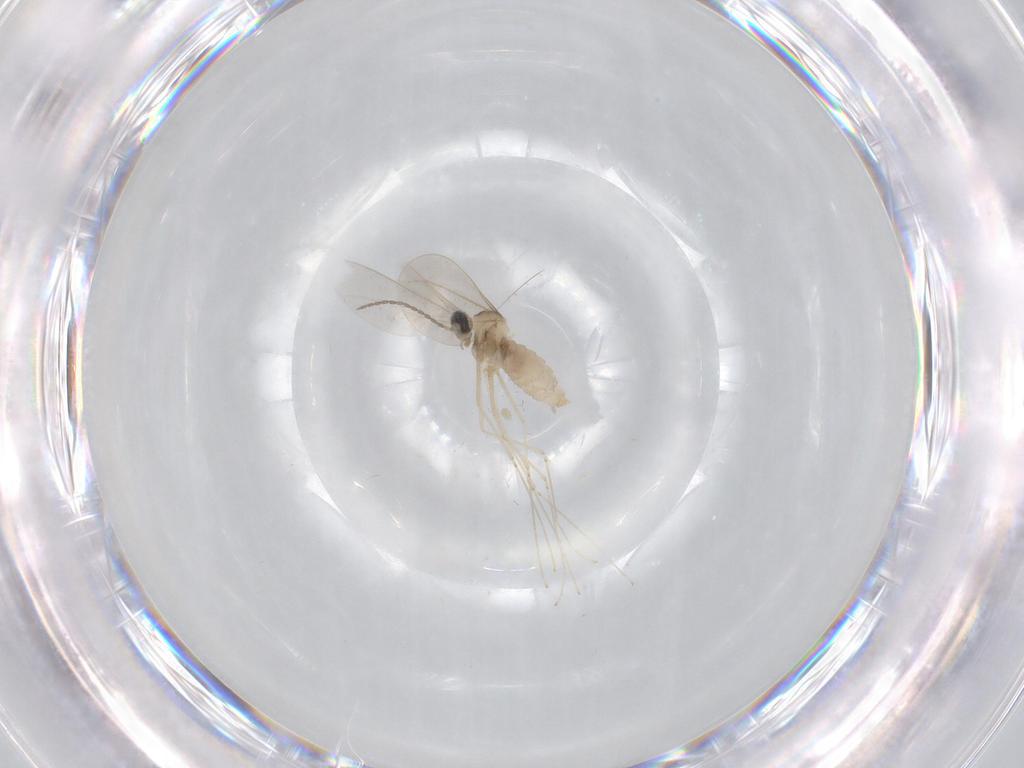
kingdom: Animalia
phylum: Arthropoda
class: Insecta
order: Diptera
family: Cecidomyiidae
